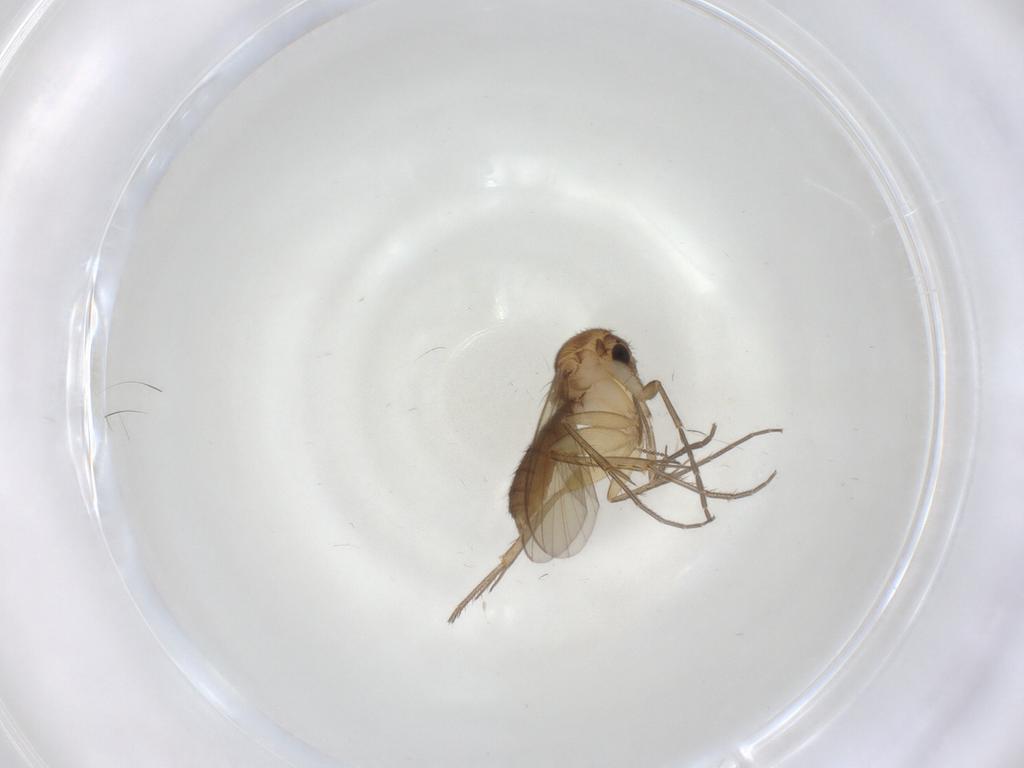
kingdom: Animalia
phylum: Arthropoda
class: Insecta
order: Diptera
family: Mycetophilidae
